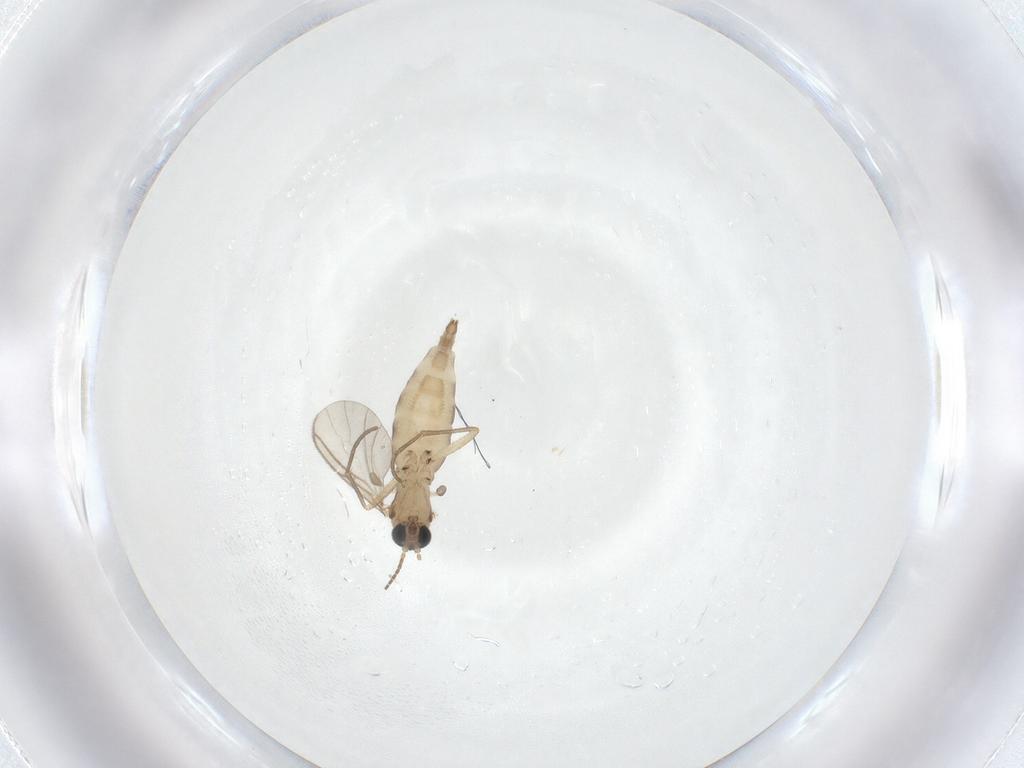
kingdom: Animalia
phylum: Arthropoda
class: Insecta
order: Diptera
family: Sciaridae
